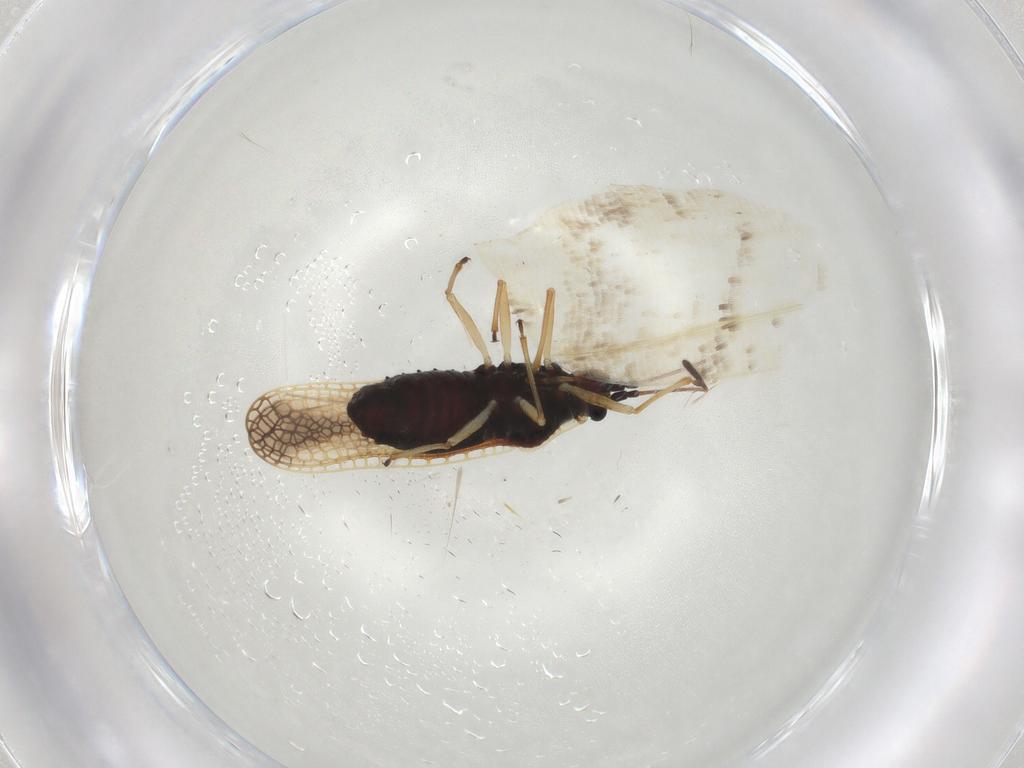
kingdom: Animalia
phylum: Arthropoda
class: Insecta
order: Hemiptera
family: Tingidae
